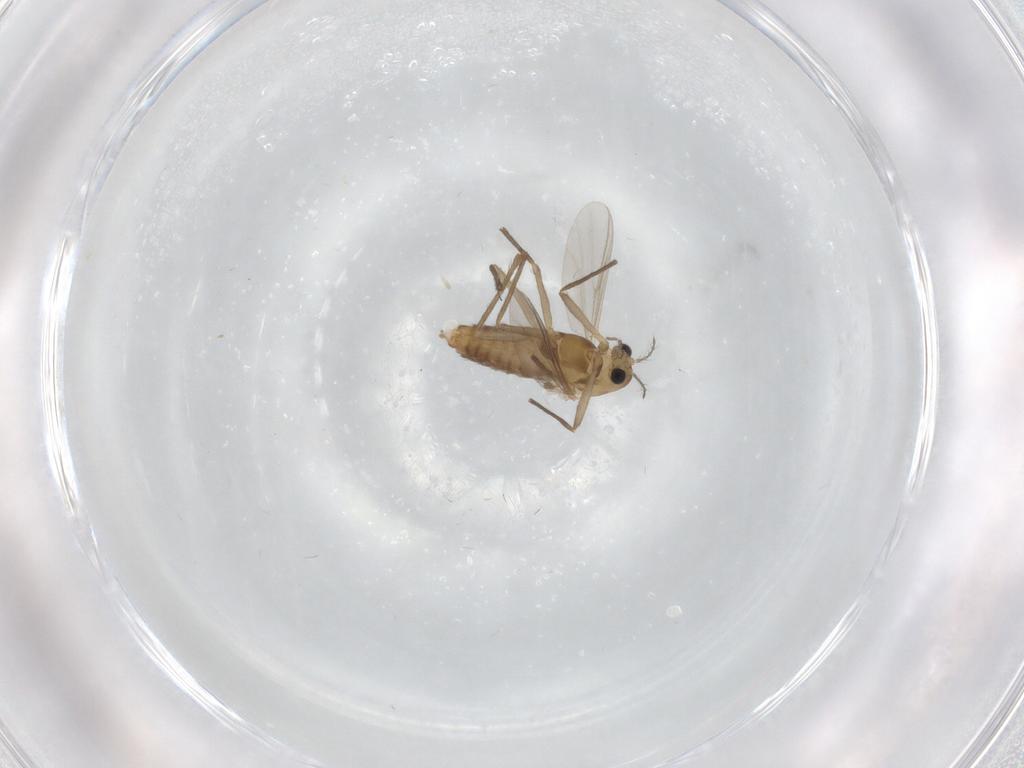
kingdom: Animalia
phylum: Arthropoda
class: Insecta
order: Diptera
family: Chironomidae
